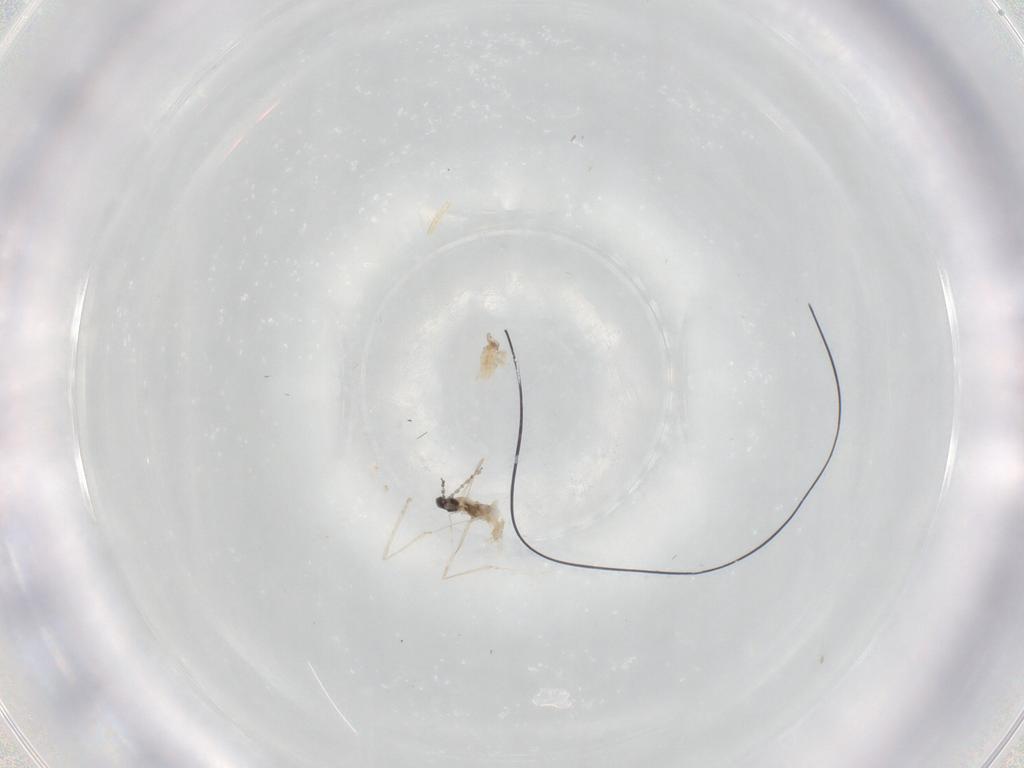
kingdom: Animalia
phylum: Arthropoda
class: Insecta
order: Diptera
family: Cecidomyiidae
